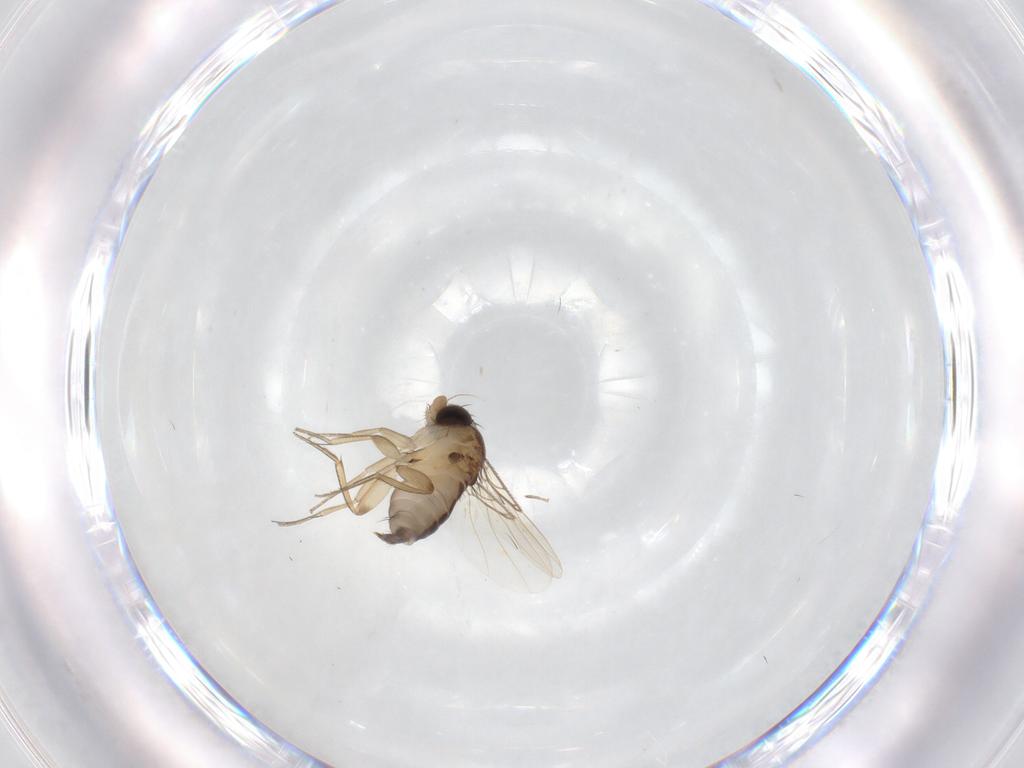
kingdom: Animalia
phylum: Arthropoda
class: Insecta
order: Diptera
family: Phoridae
